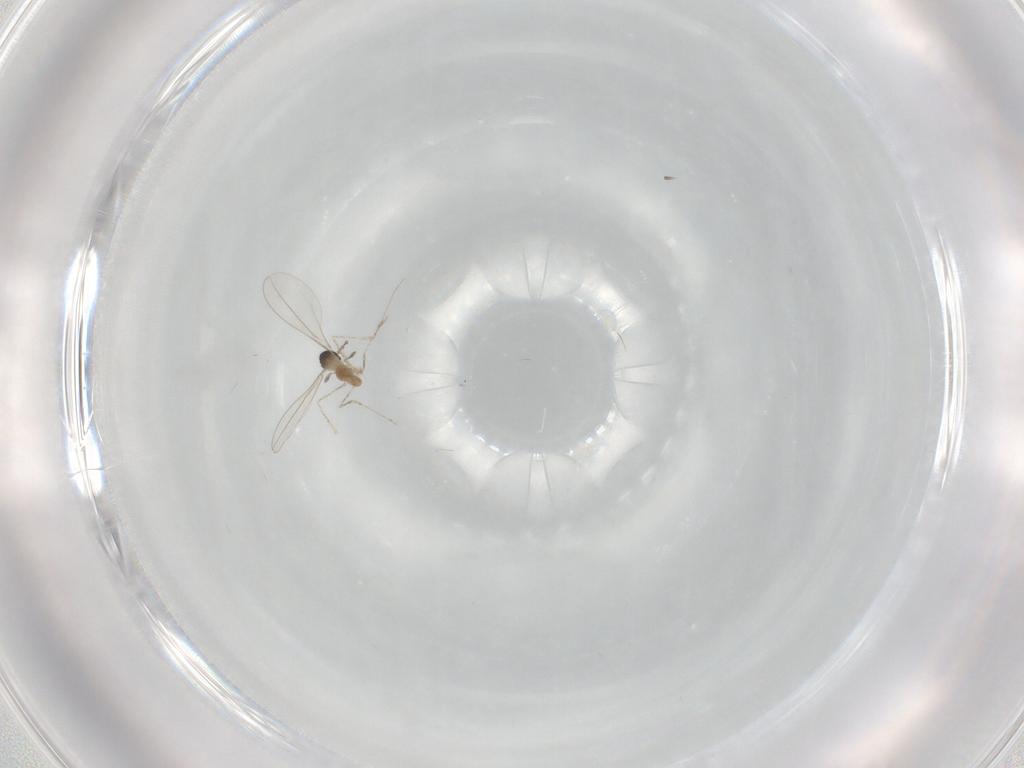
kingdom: Animalia
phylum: Arthropoda
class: Insecta
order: Diptera
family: Cecidomyiidae
